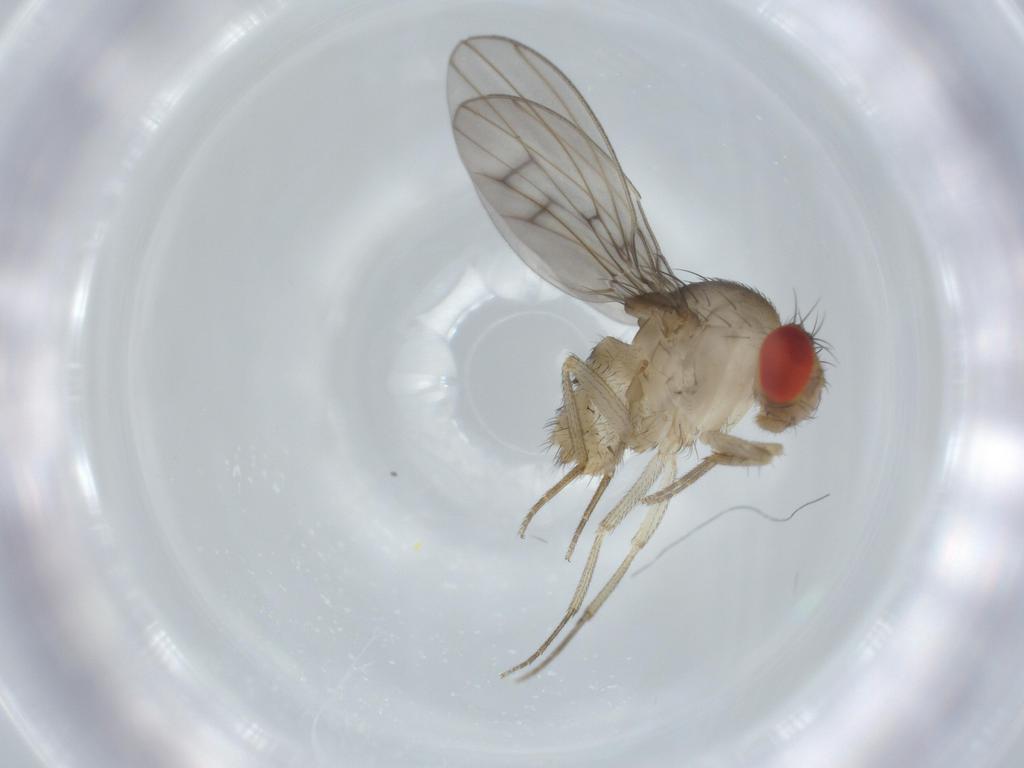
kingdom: Animalia
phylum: Arthropoda
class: Insecta
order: Diptera
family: Drosophilidae
